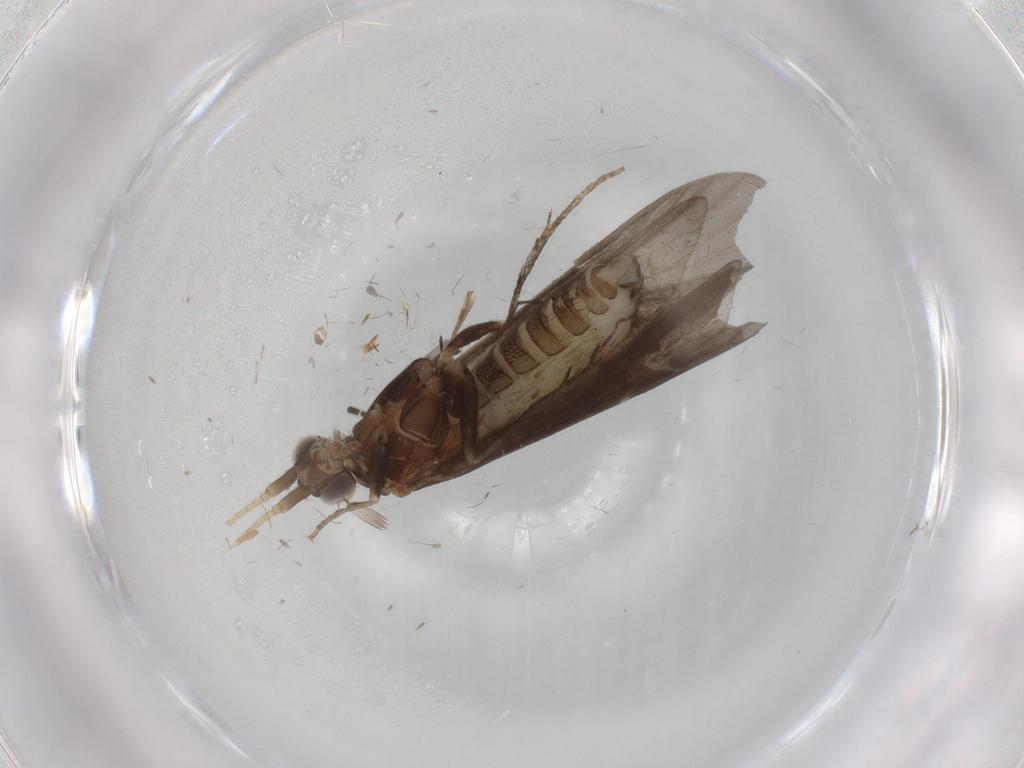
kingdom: Animalia
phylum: Arthropoda
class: Insecta
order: Trichoptera
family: Helicopsychidae
